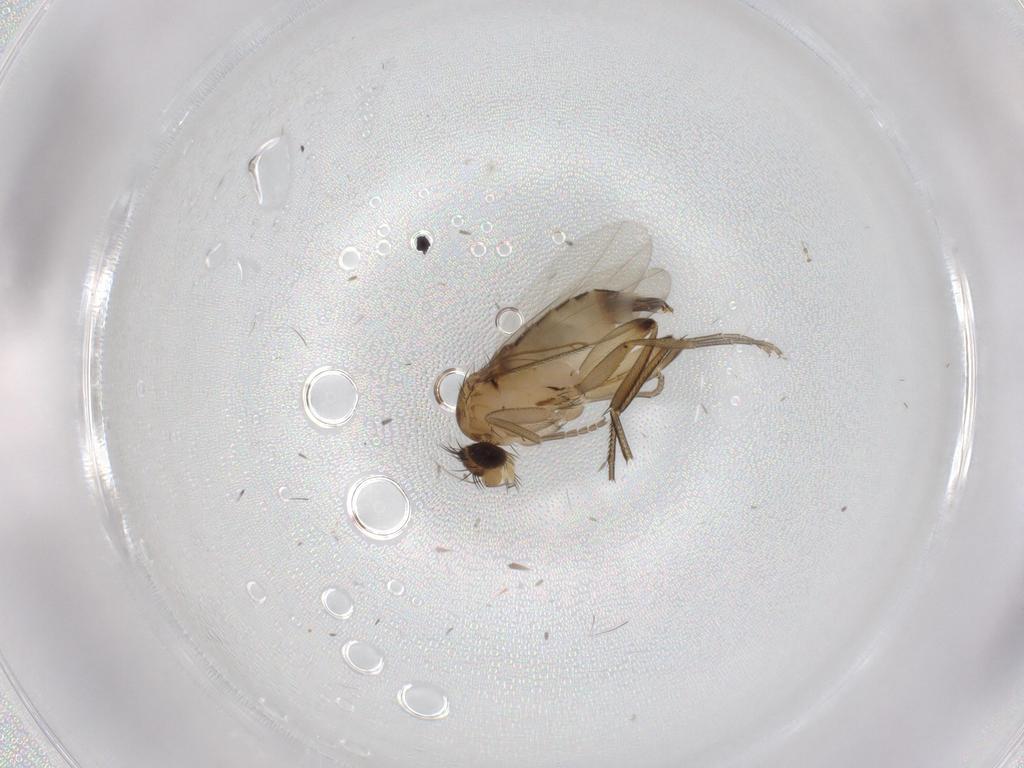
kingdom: Animalia
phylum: Arthropoda
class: Insecta
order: Diptera
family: Phoridae
